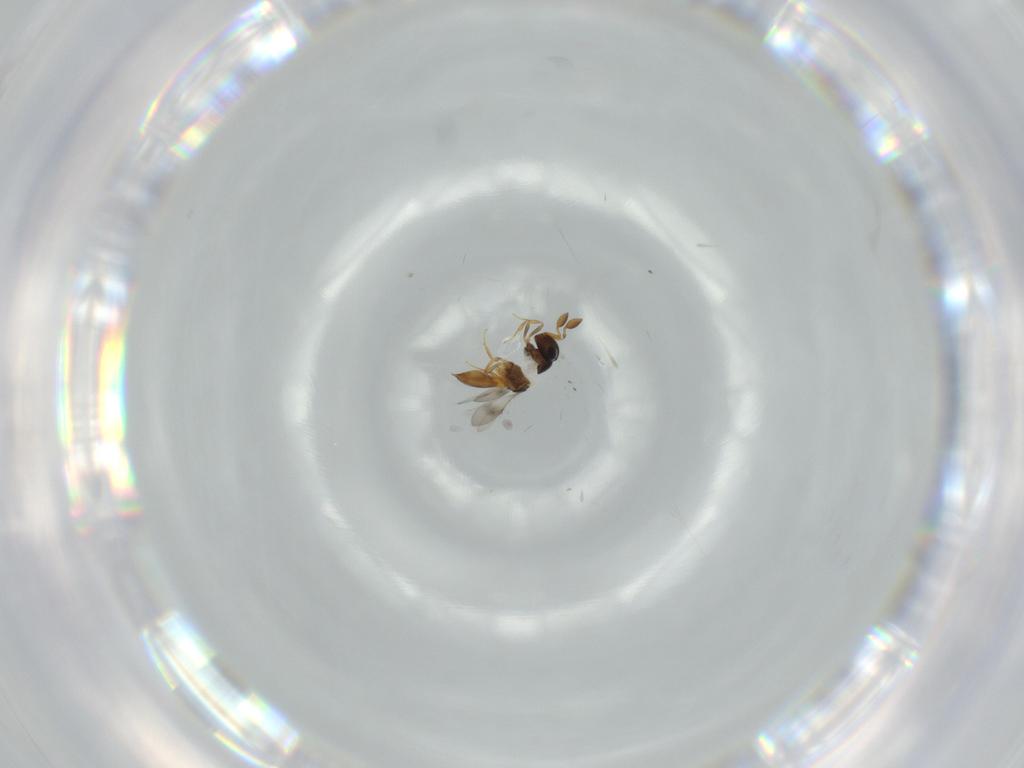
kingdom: Animalia
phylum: Arthropoda
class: Insecta
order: Hymenoptera
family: Scelionidae
